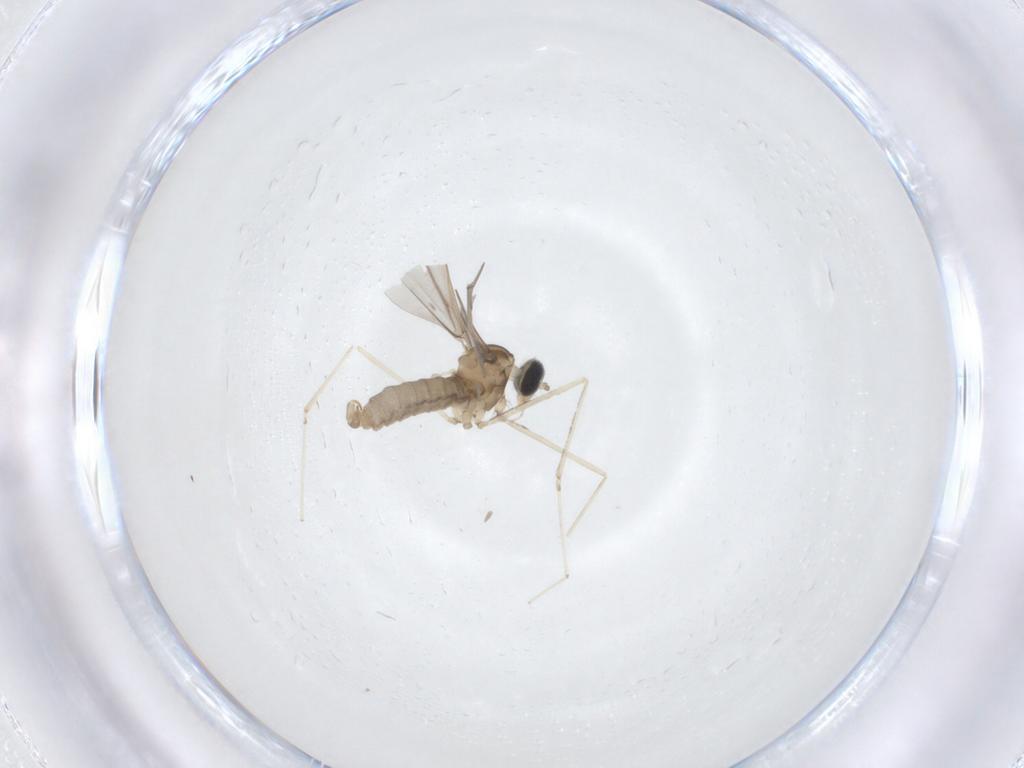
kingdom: Animalia
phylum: Arthropoda
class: Insecta
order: Diptera
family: Cecidomyiidae
